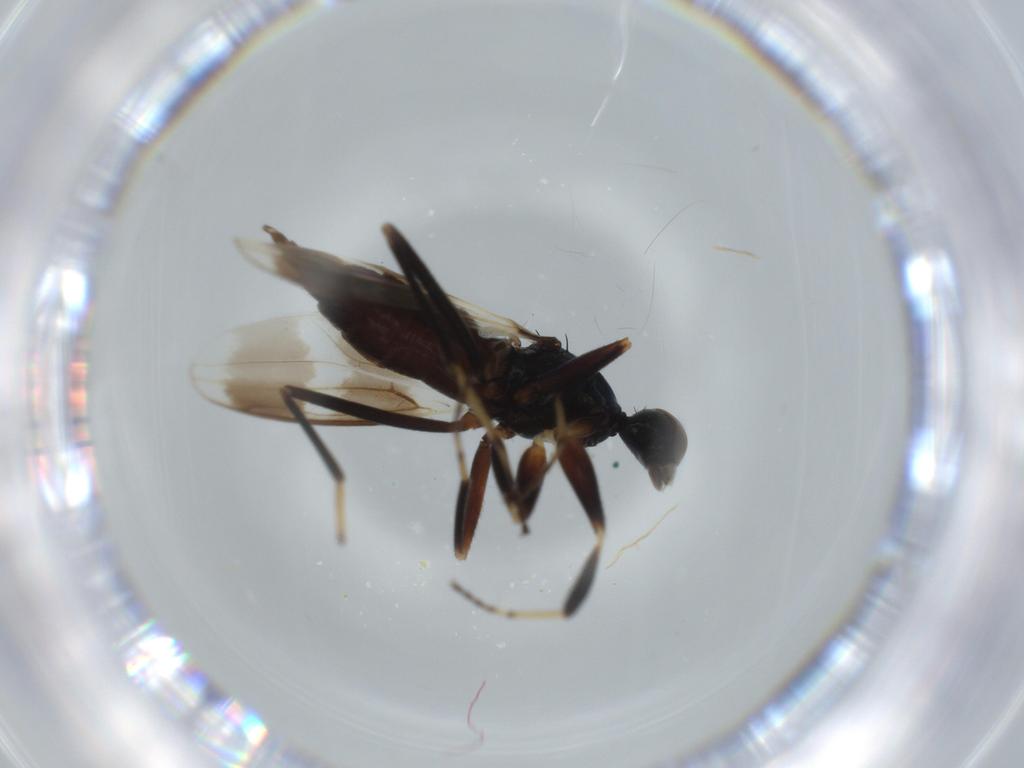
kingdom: Animalia
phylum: Arthropoda
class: Insecta
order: Diptera
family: Hybotidae
